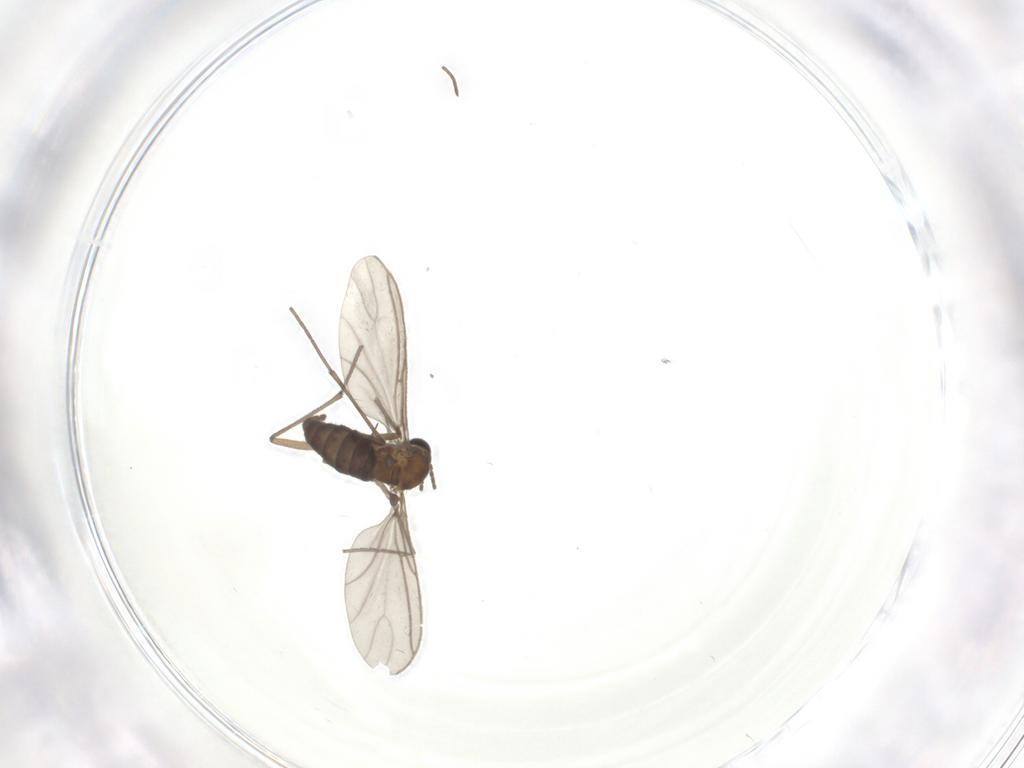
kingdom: Animalia
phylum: Arthropoda
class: Insecta
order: Diptera
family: Sciaridae
